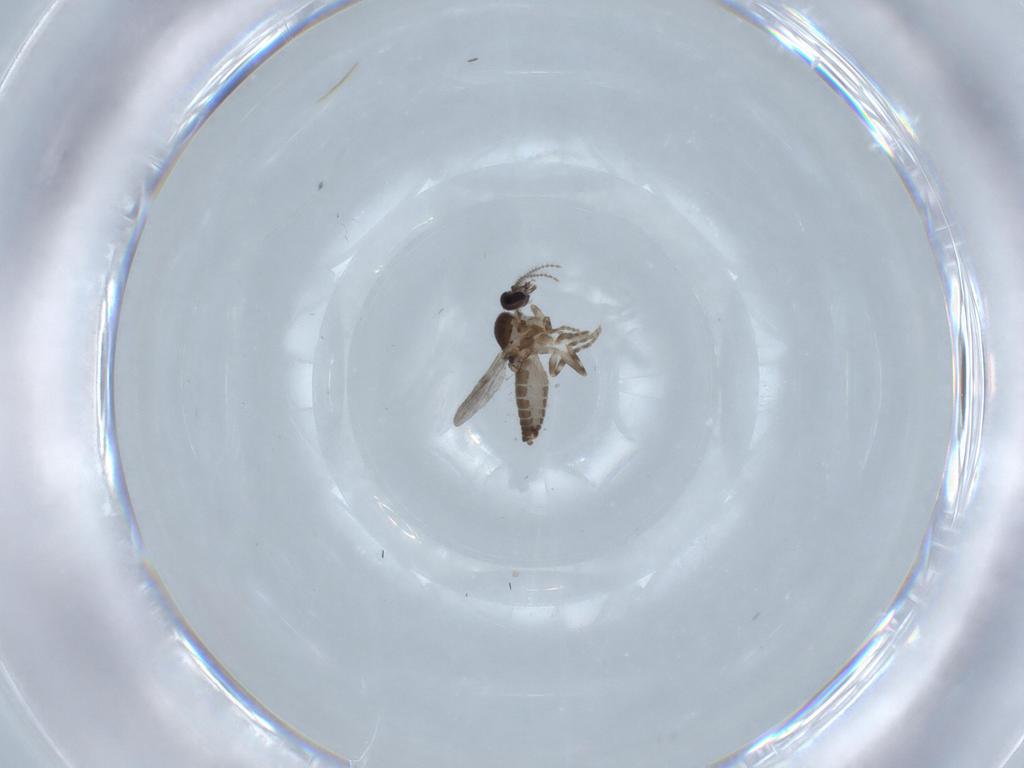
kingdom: Animalia
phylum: Arthropoda
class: Insecta
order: Diptera
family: Ceratopogonidae
